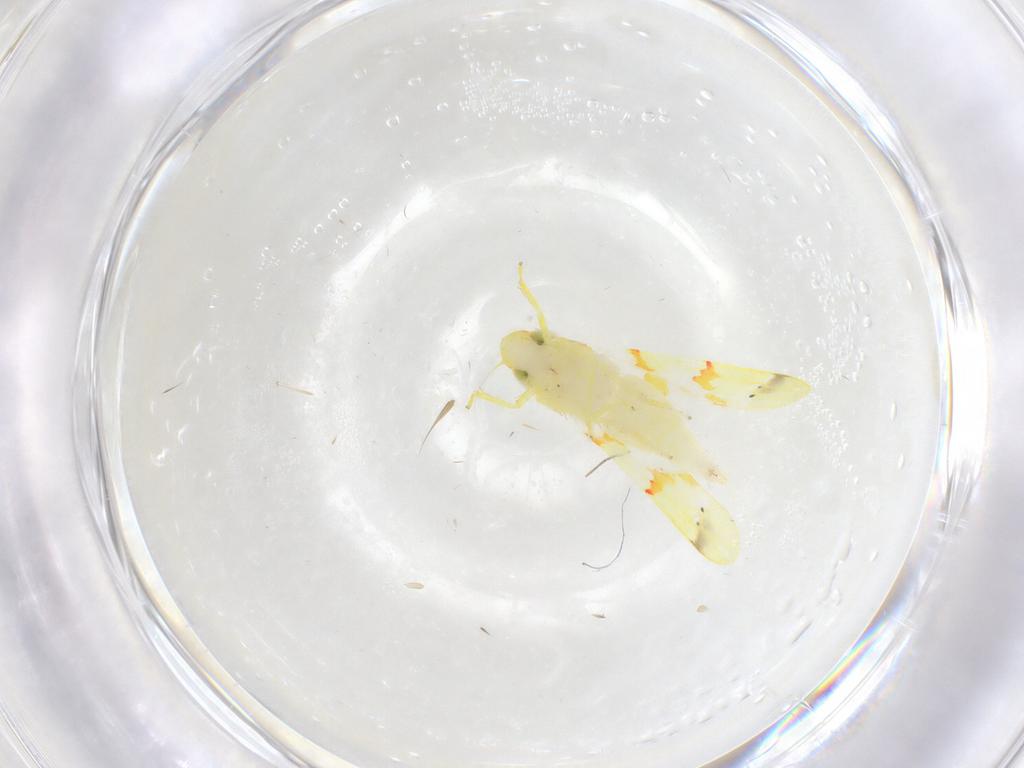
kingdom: Animalia
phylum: Arthropoda
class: Insecta
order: Hemiptera
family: Cicadellidae
